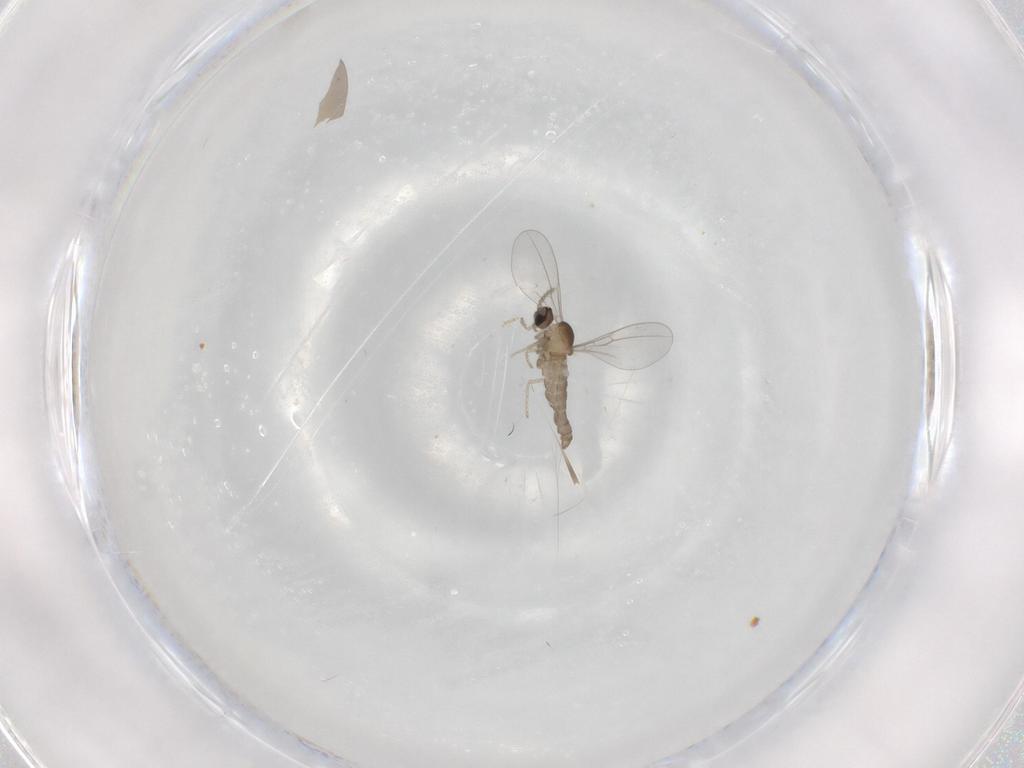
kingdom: Animalia
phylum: Arthropoda
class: Insecta
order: Diptera
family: Cecidomyiidae
